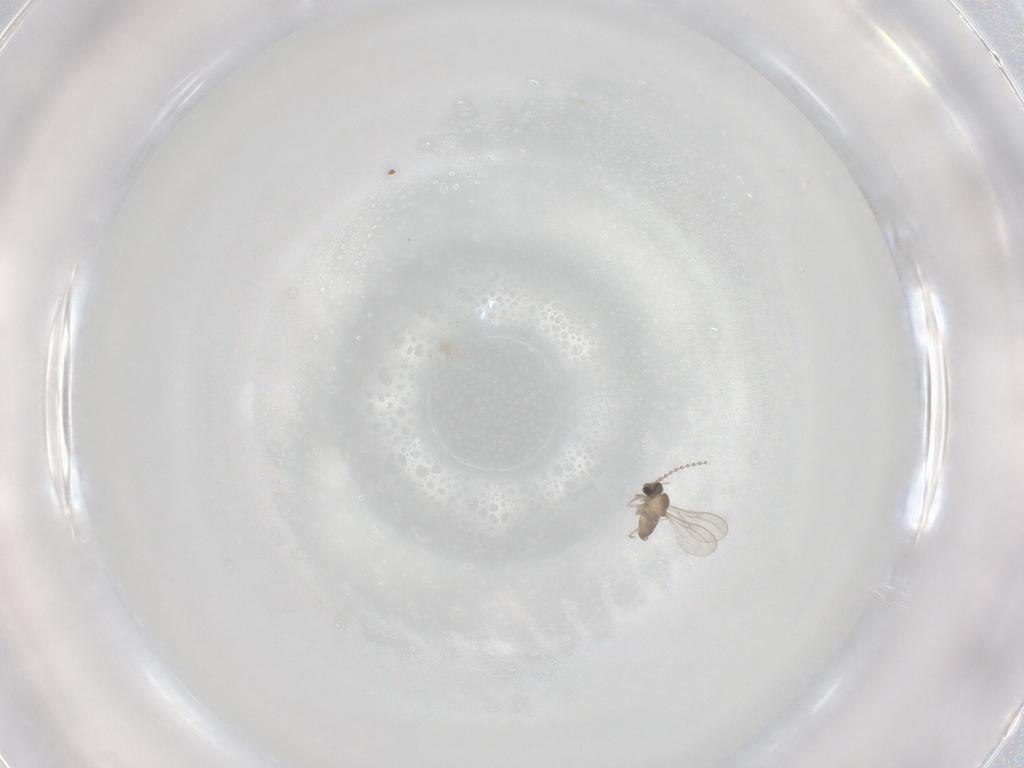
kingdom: Animalia
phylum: Arthropoda
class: Insecta
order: Diptera
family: Cecidomyiidae
